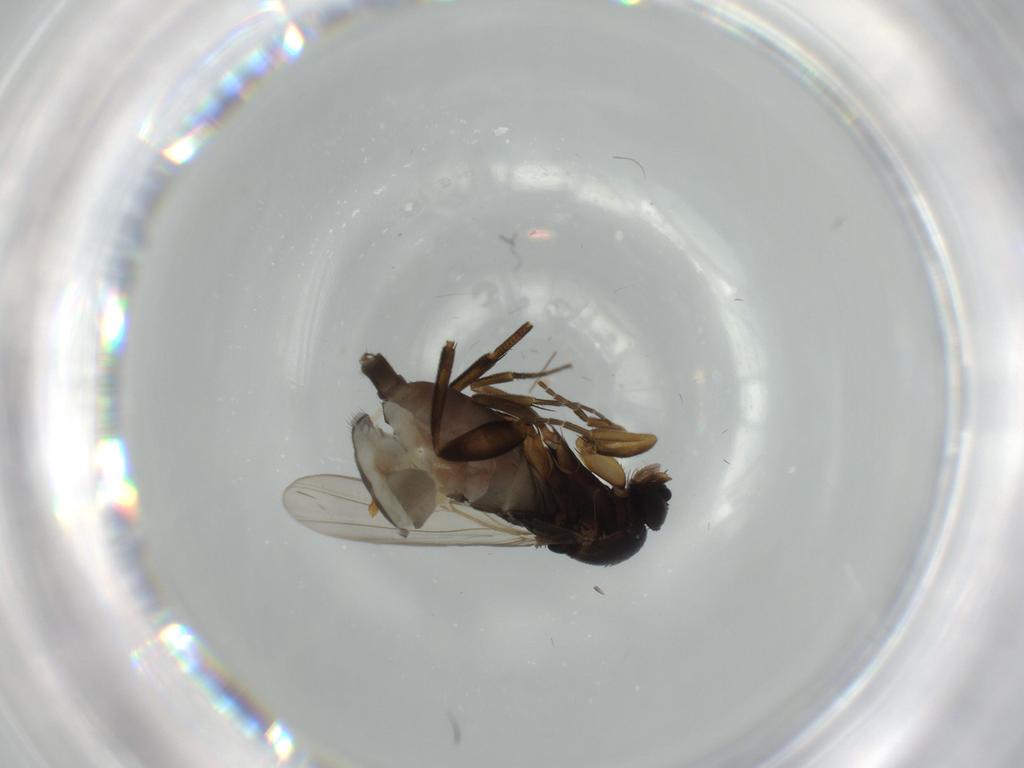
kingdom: Animalia
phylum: Arthropoda
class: Insecta
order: Diptera
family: Phoridae
